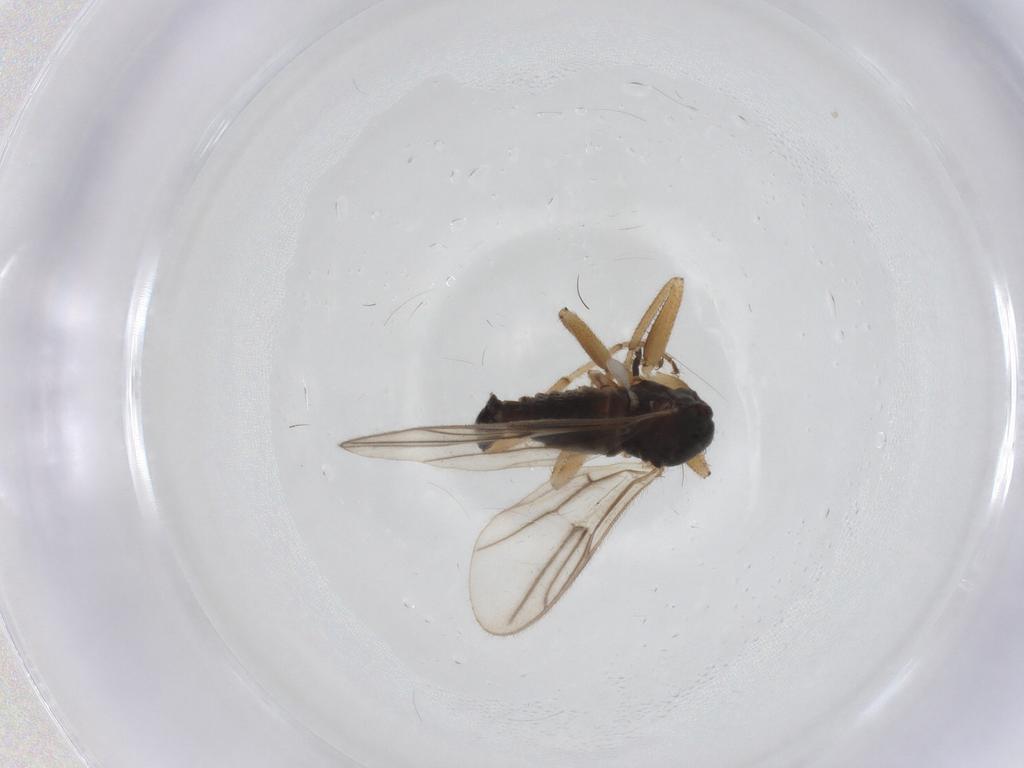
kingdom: Animalia
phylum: Arthropoda
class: Insecta
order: Diptera
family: Hybotidae
